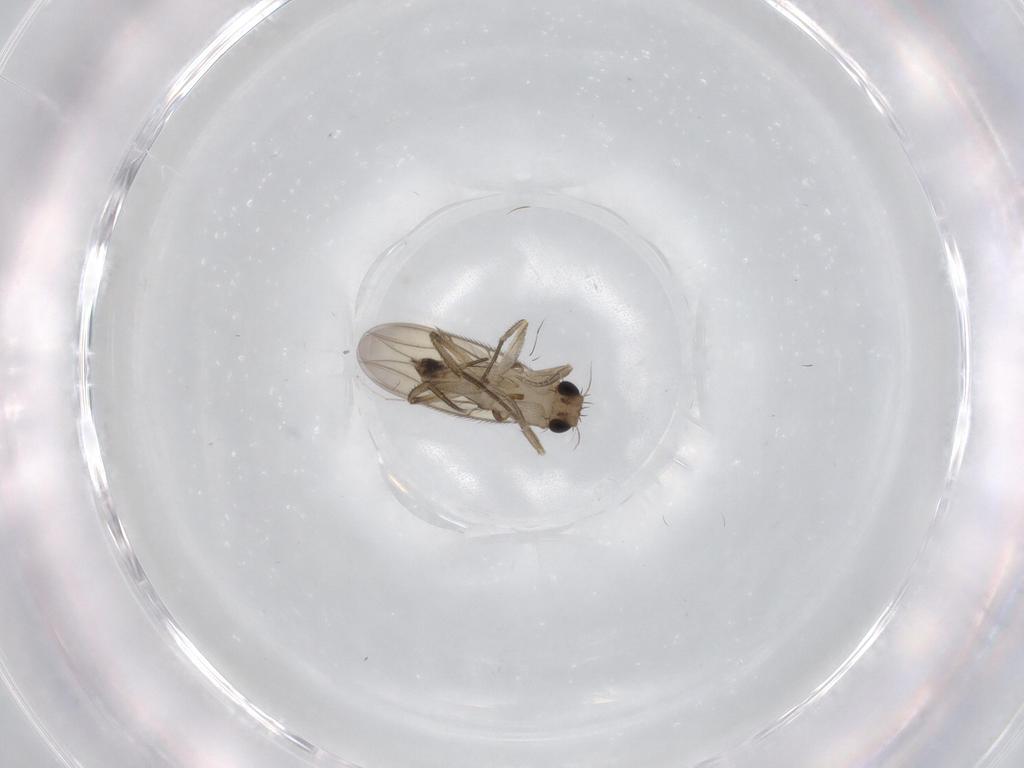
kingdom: Animalia
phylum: Arthropoda
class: Insecta
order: Diptera
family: Phoridae
